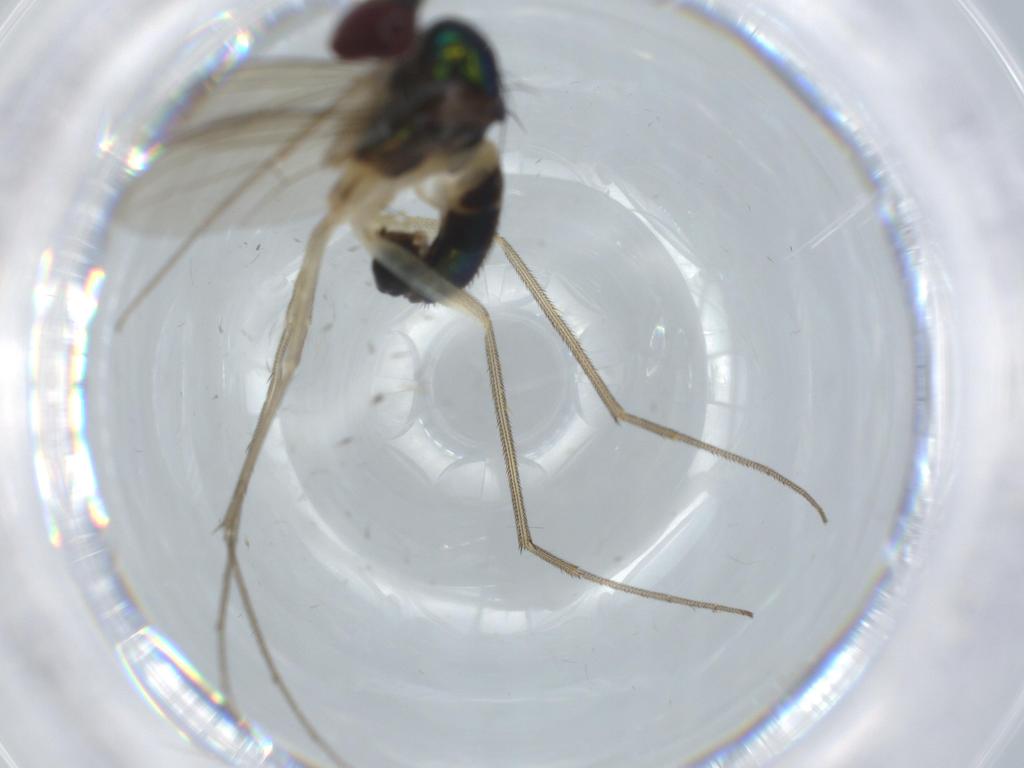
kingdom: Animalia
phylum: Arthropoda
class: Insecta
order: Diptera
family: Dolichopodidae
